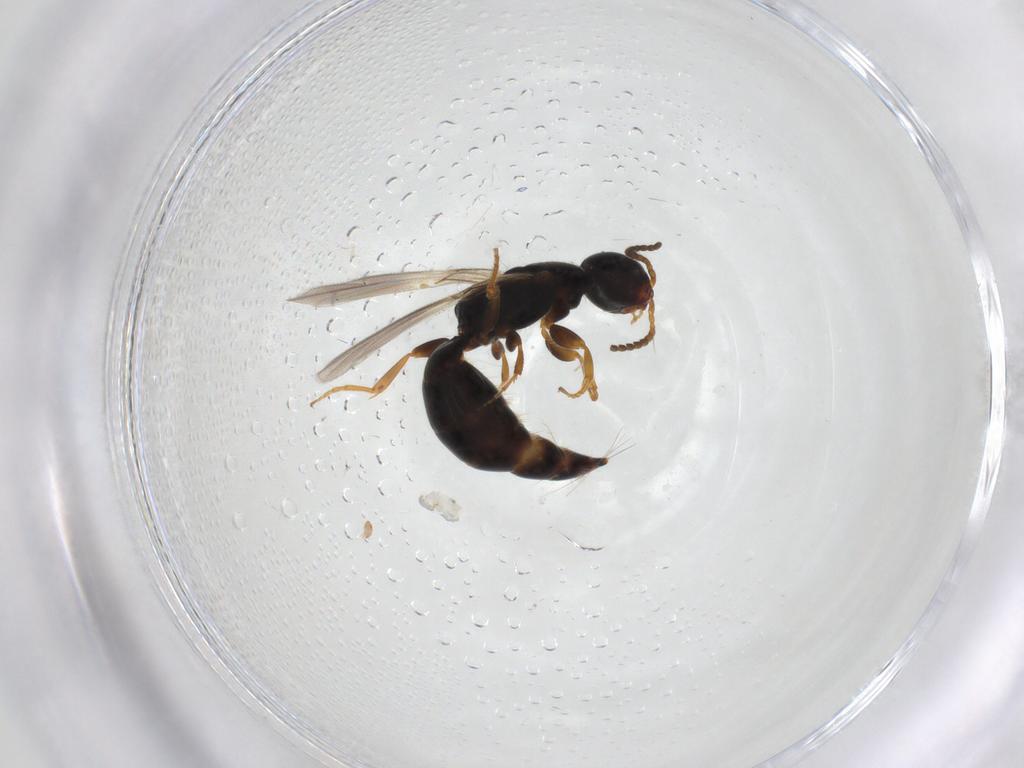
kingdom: Animalia
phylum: Arthropoda
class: Insecta
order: Hymenoptera
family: Bethylidae
